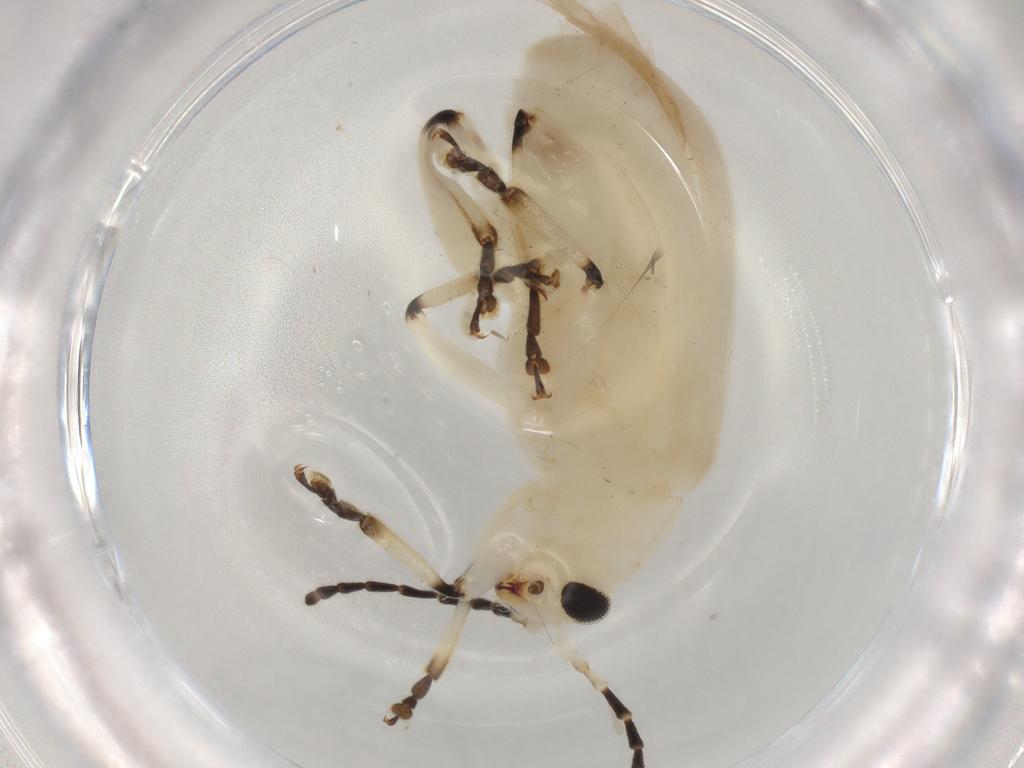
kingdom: Animalia
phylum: Arthropoda
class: Insecta
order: Coleoptera
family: Chrysomelidae
